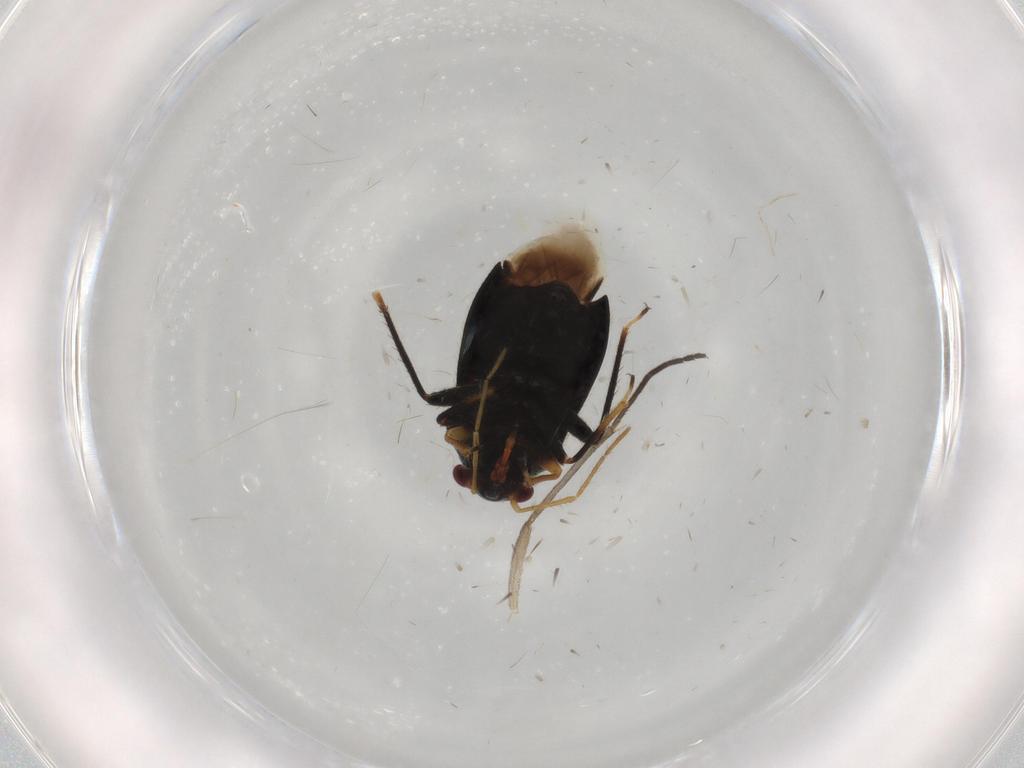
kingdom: Animalia
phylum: Arthropoda
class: Insecta
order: Hemiptera
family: Miridae
